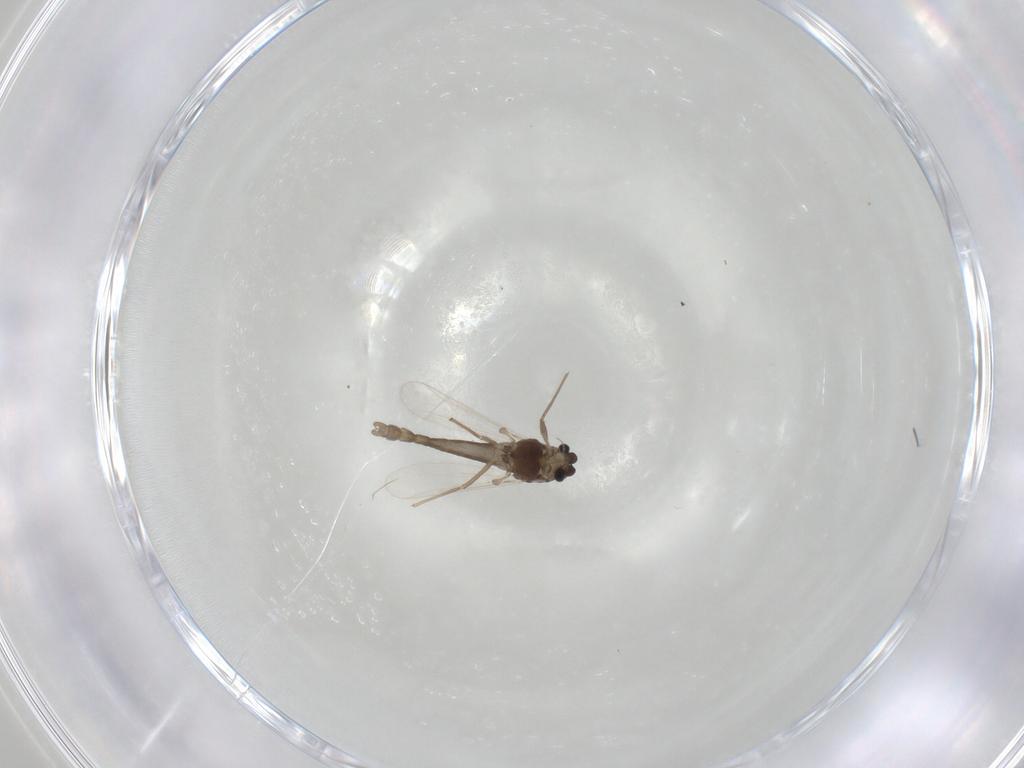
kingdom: Animalia
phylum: Arthropoda
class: Insecta
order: Diptera
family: Chironomidae
